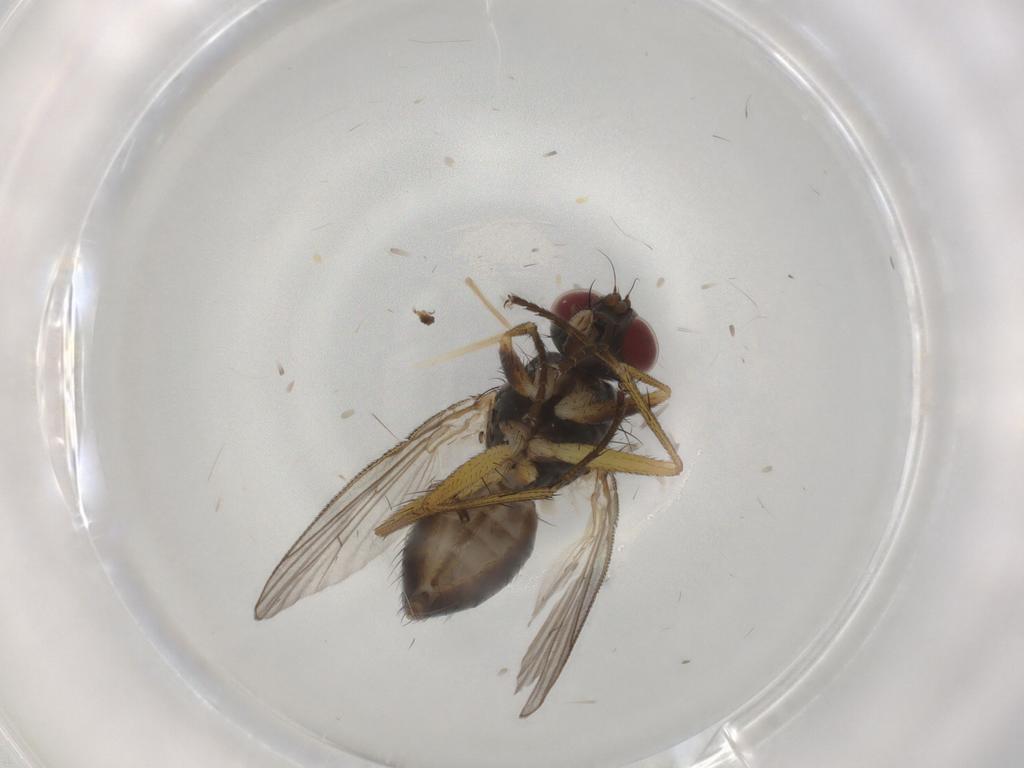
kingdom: Animalia
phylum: Arthropoda
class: Insecta
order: Diptera
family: Muscidae
